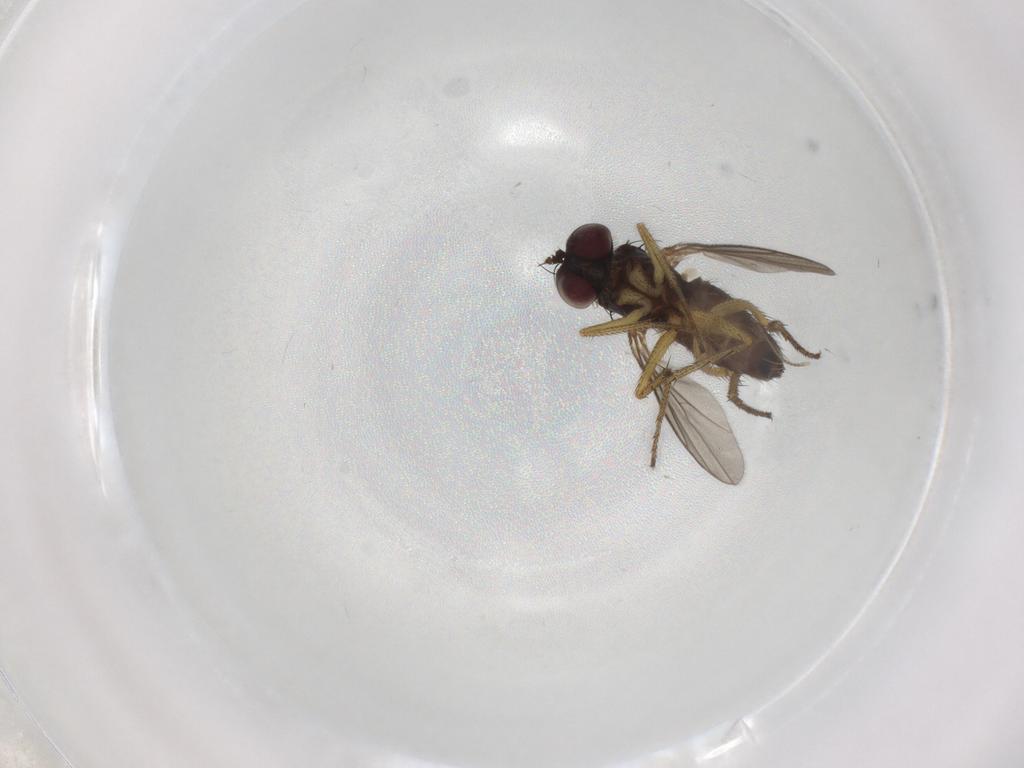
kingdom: Animalia
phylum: Arthropoda
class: Insecta
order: Diptera
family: Dolichopodidae
